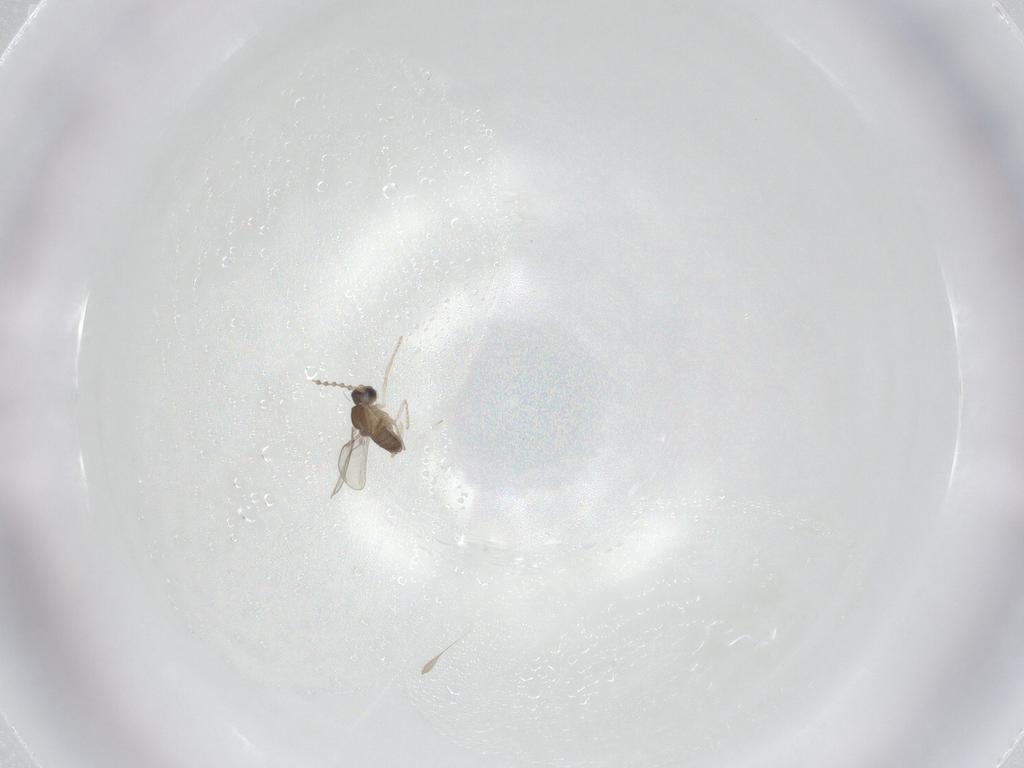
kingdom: Animalia
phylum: Arthropoda
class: Insecta
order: Diptera
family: Cecidomyiidae
